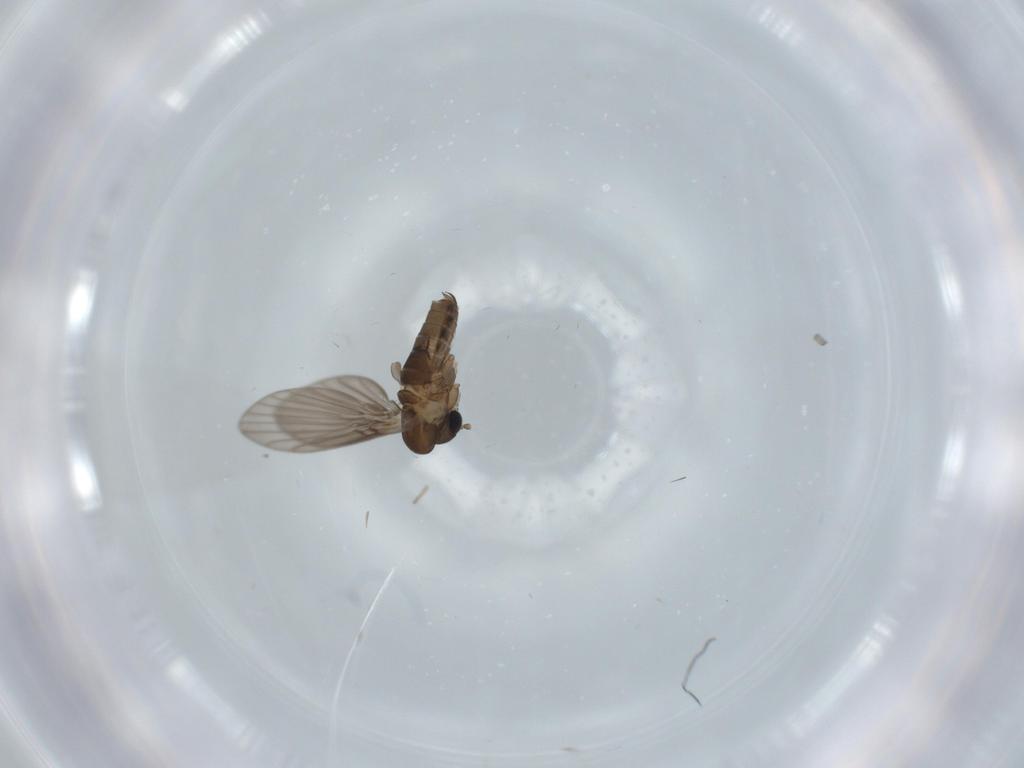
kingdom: Animalia
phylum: Arthropoda
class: Insecta
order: Diptera
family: Psychodidae
